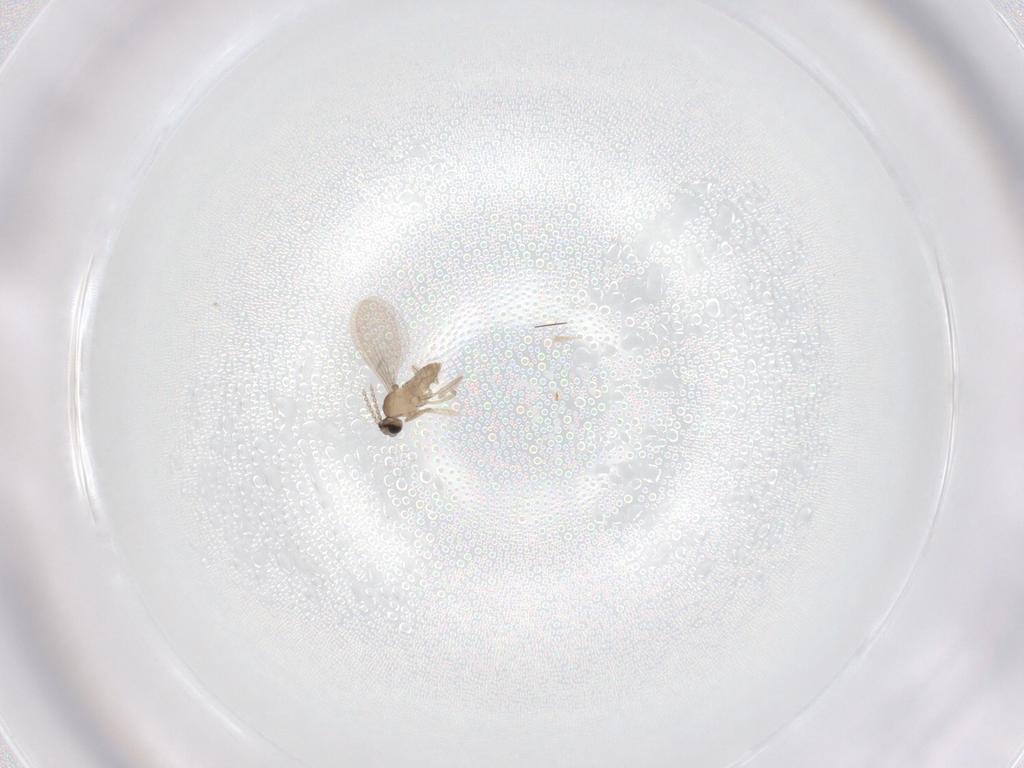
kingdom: Animalia
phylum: Arthropoda
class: Insecta
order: Diptera
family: Cecidomyiidae
